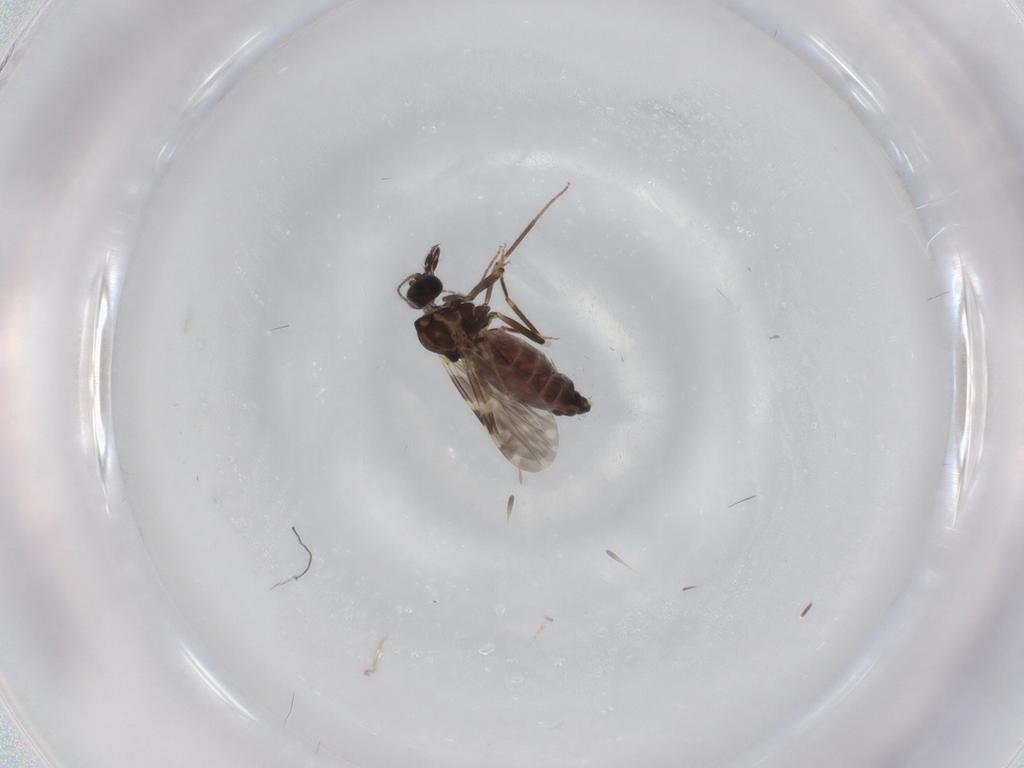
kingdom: Animalia
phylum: Arthropoda
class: Insecta
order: Diptera
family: Ceratopogonidae
